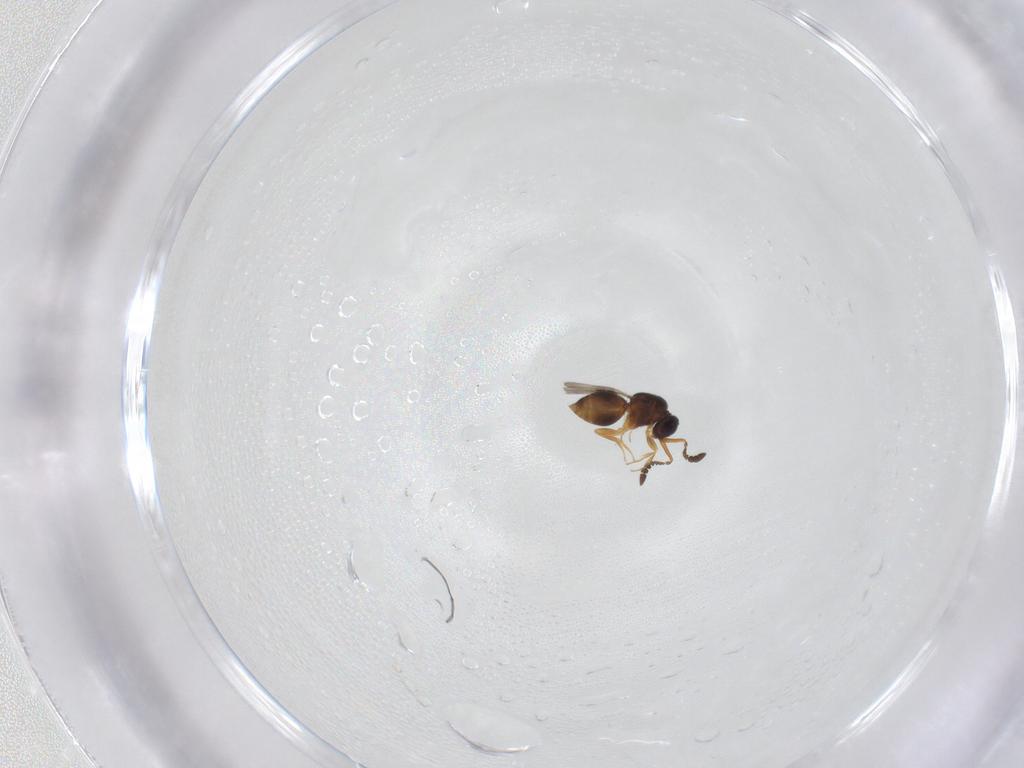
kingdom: Animalia
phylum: Arthropoda
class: Insecta
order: Hymenoptera
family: Ceraphronidae
